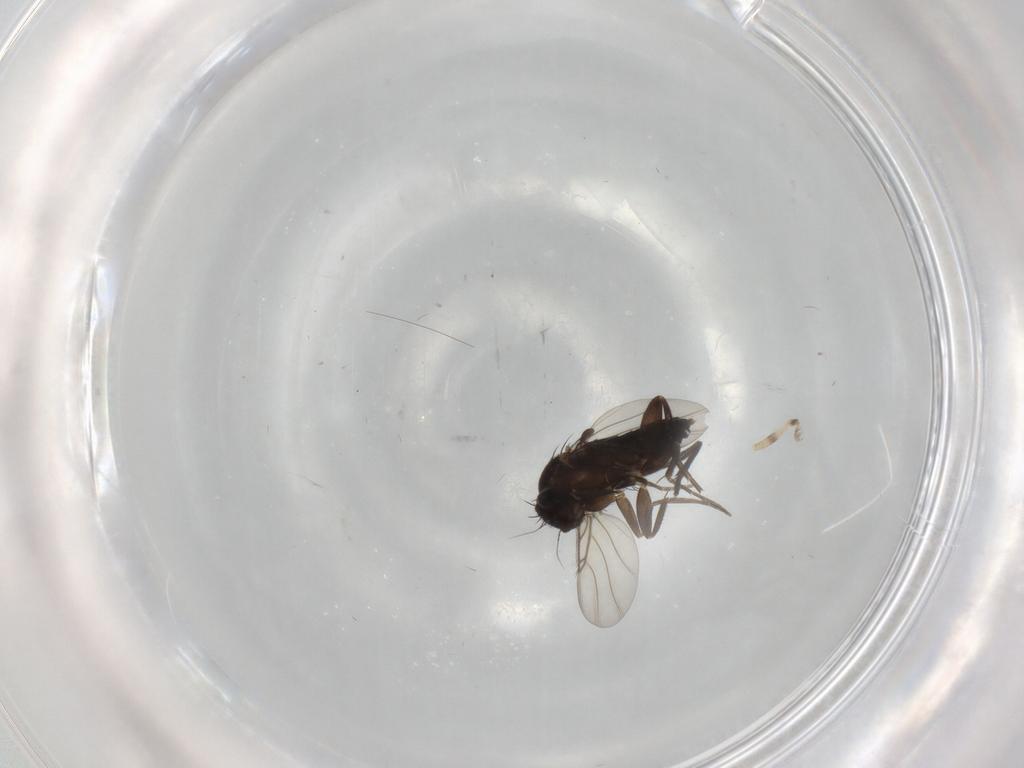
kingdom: Animalia
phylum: Arthropoda
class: Insecta
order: Diptera
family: Phoridae
